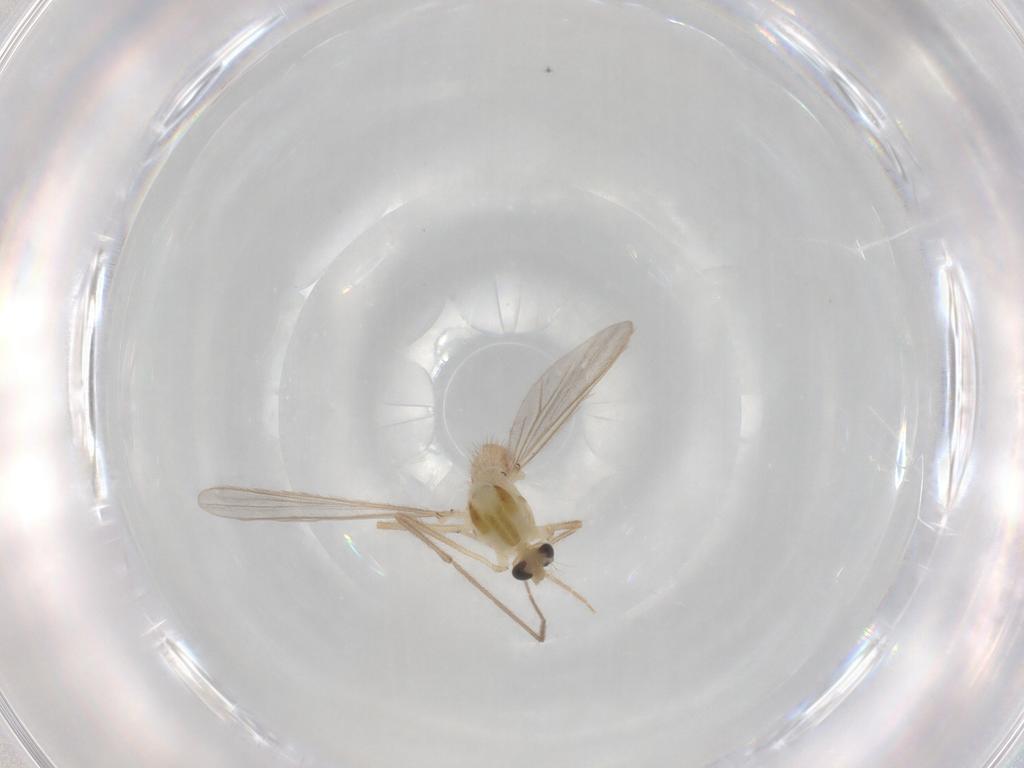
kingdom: Animalia
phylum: Arthropoda
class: Insecta
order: Diptera
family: Chironomidae
